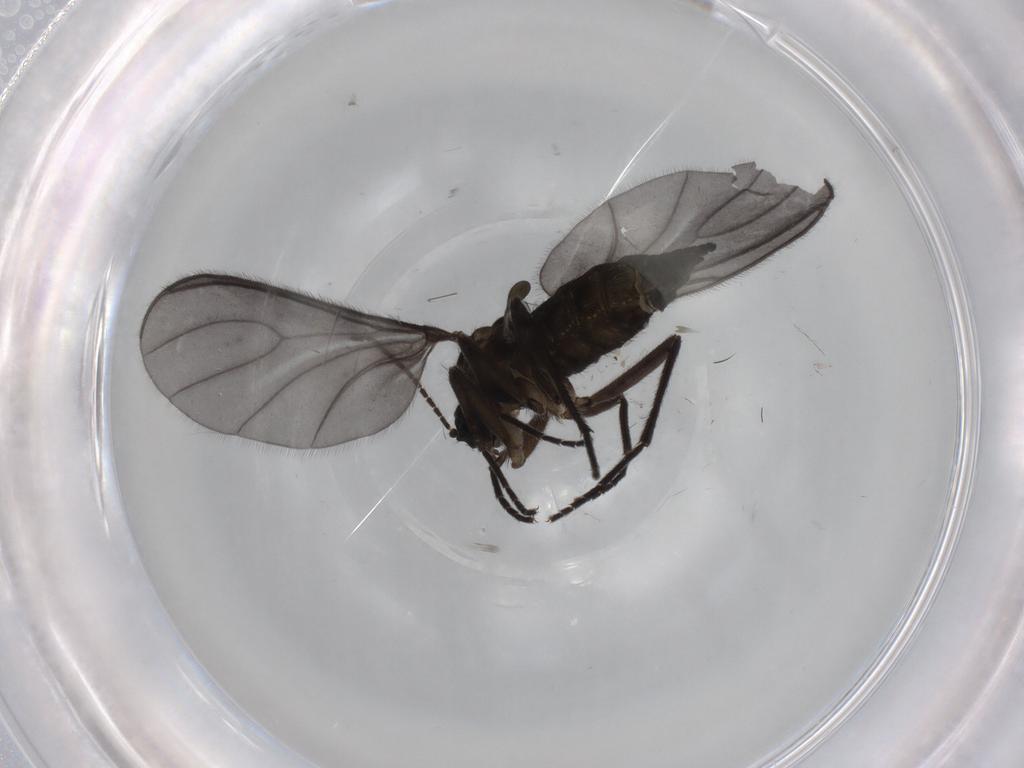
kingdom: Animalia
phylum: Arthropoda
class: Insecta
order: Diptera
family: Sciaridae
